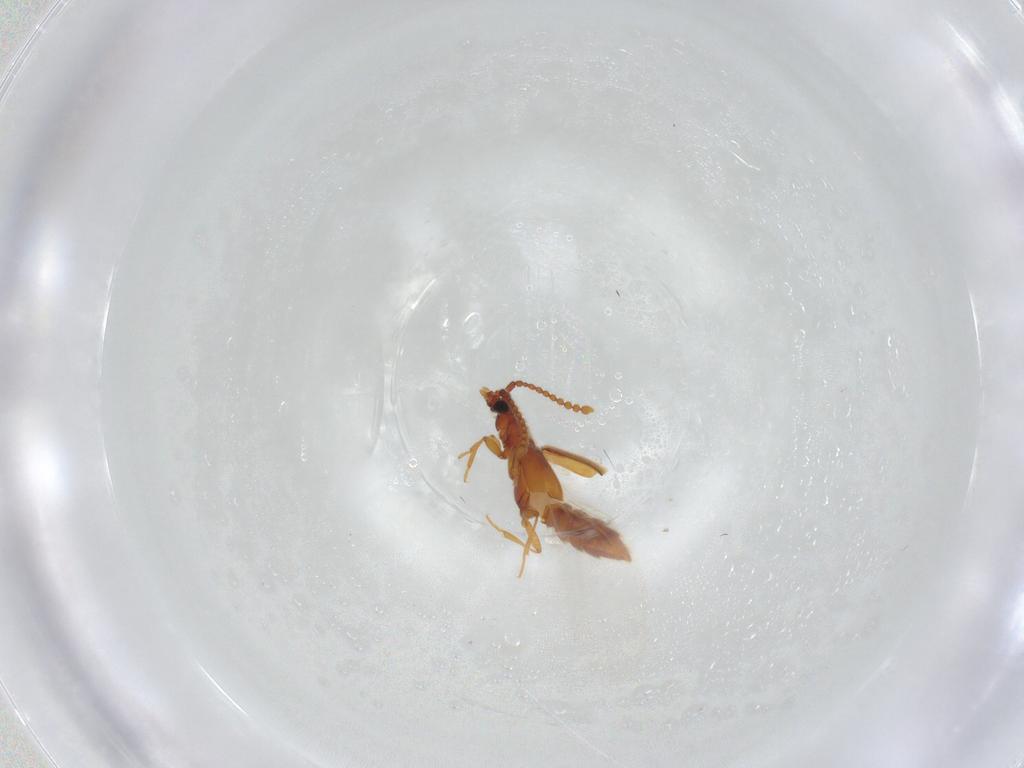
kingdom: Animalia
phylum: Arthropoda
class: Insecta
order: Coleoptera
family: Staphylinidae
